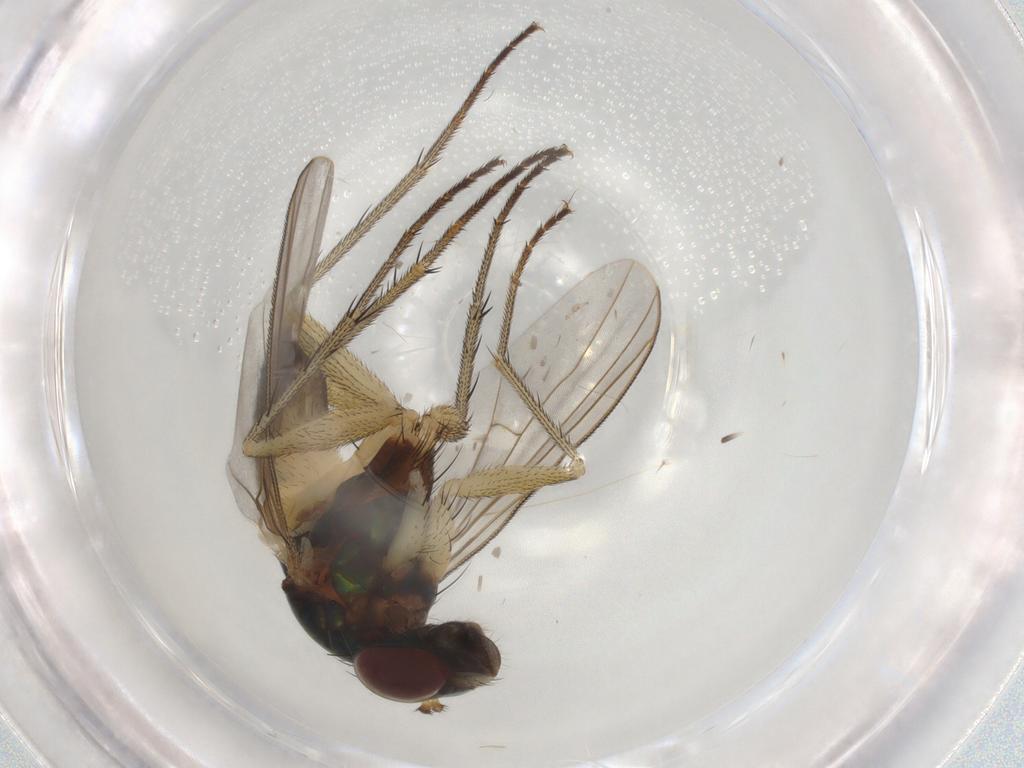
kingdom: Animalia
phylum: Arthropoda
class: Insecta
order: Diptera
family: Dolichopodidae
